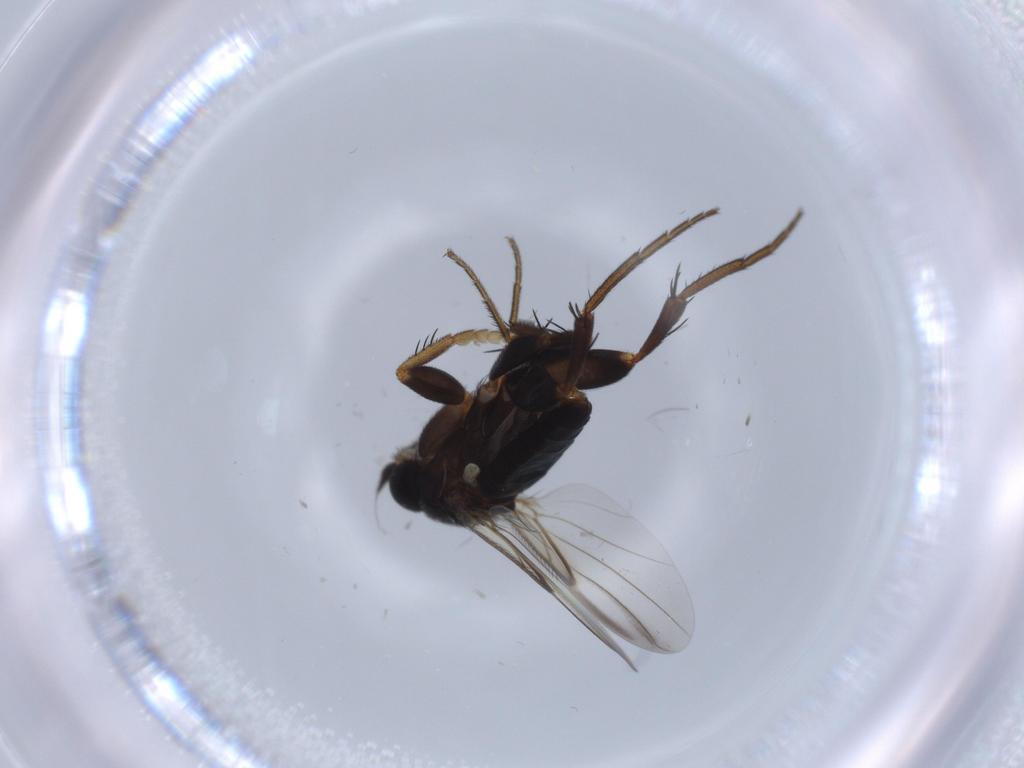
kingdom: Animalia
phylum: Arthropoda
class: Insecta
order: Diptera
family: Phoridae
